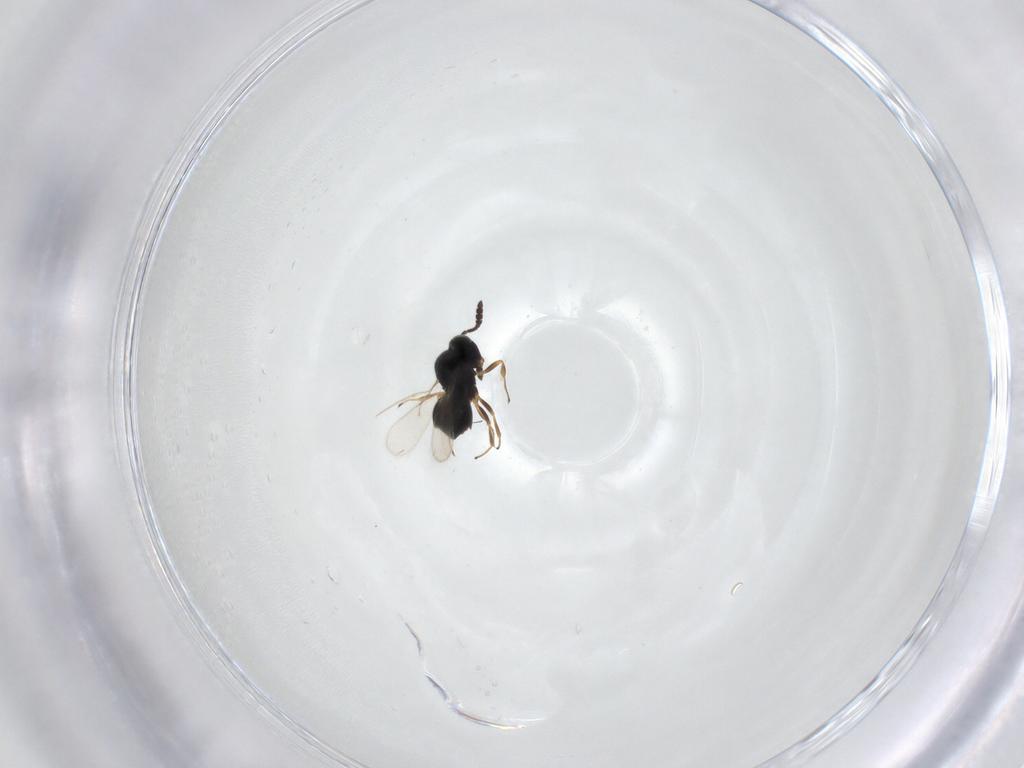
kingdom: Animalia
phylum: Arthropoda
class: Insecta
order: Hymenoptera
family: Scelionidae
